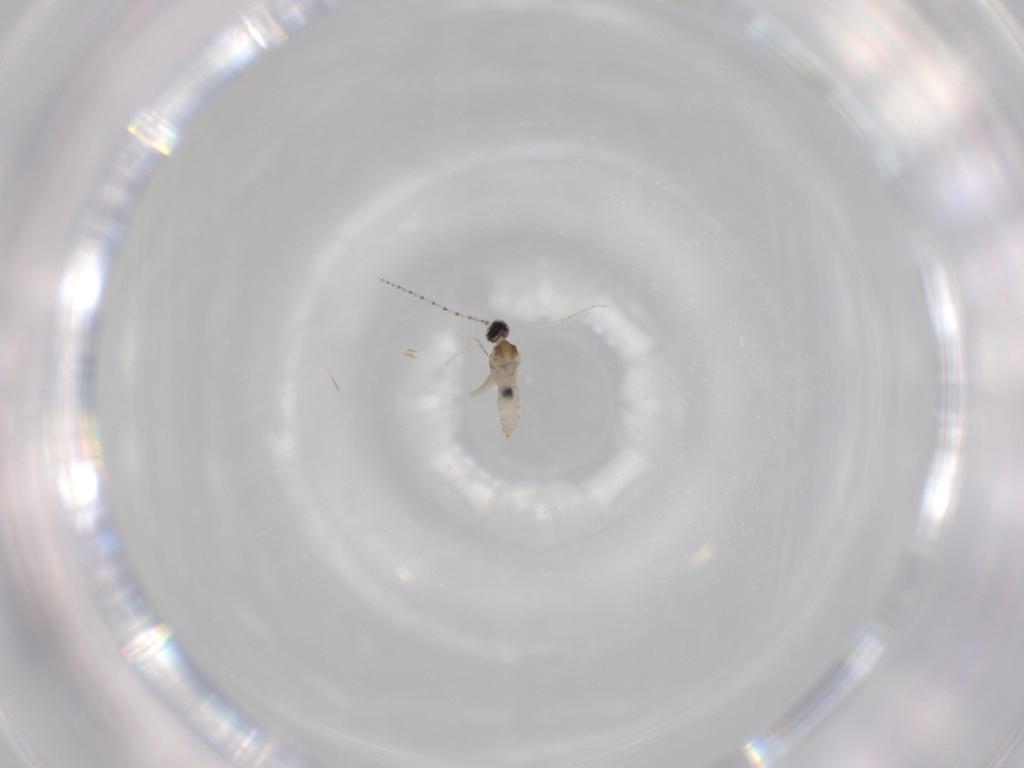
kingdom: Animalia
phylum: Arthropoda
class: Insecta
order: Diptera
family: Cecidomyiidae
